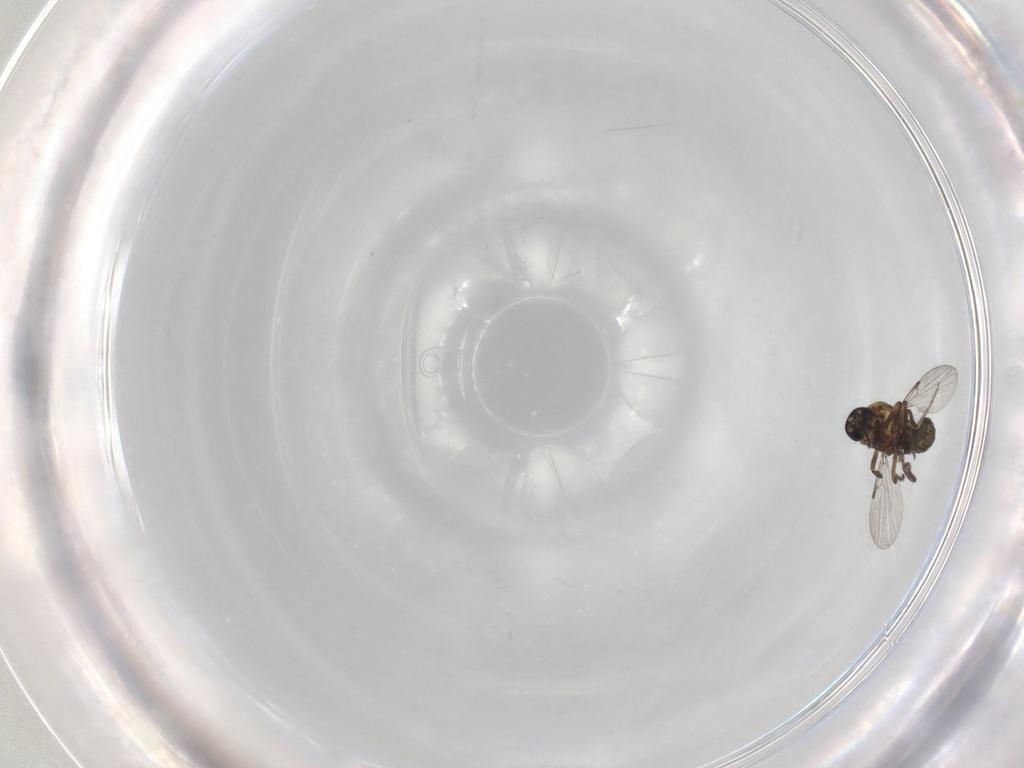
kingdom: Animalia
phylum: Arthropoda
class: Insecta
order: Diptera
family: Ceratopogonidae
